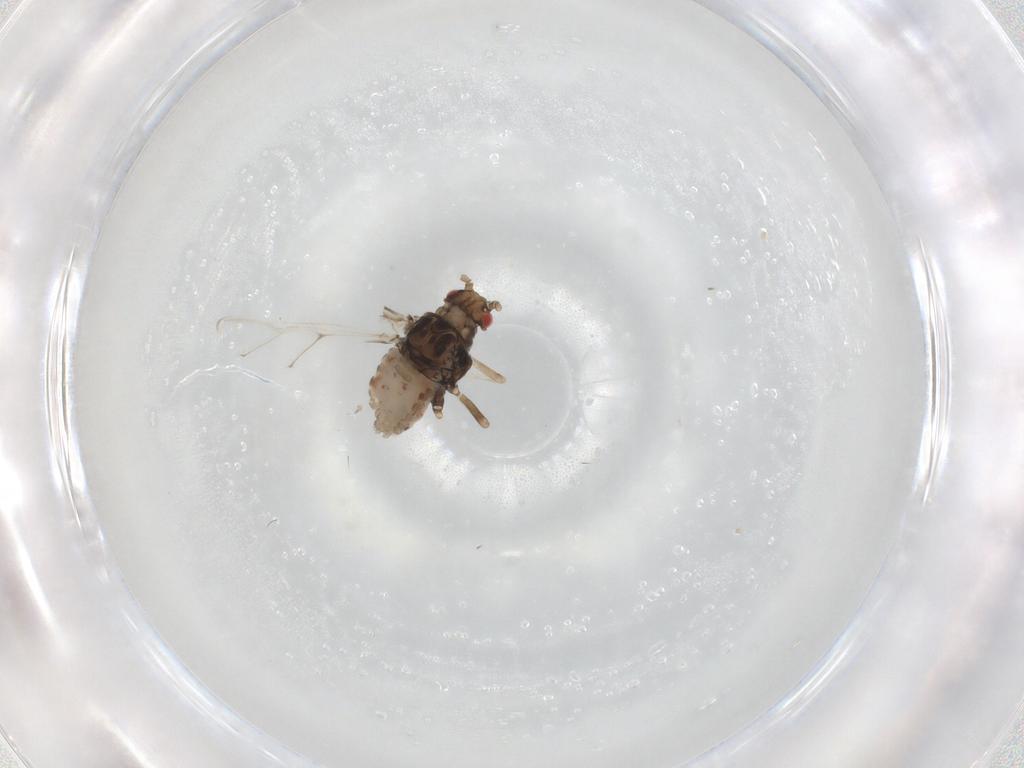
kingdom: Animalia
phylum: Arthropoda
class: Insecta
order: Hemiptera
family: Aphididae
